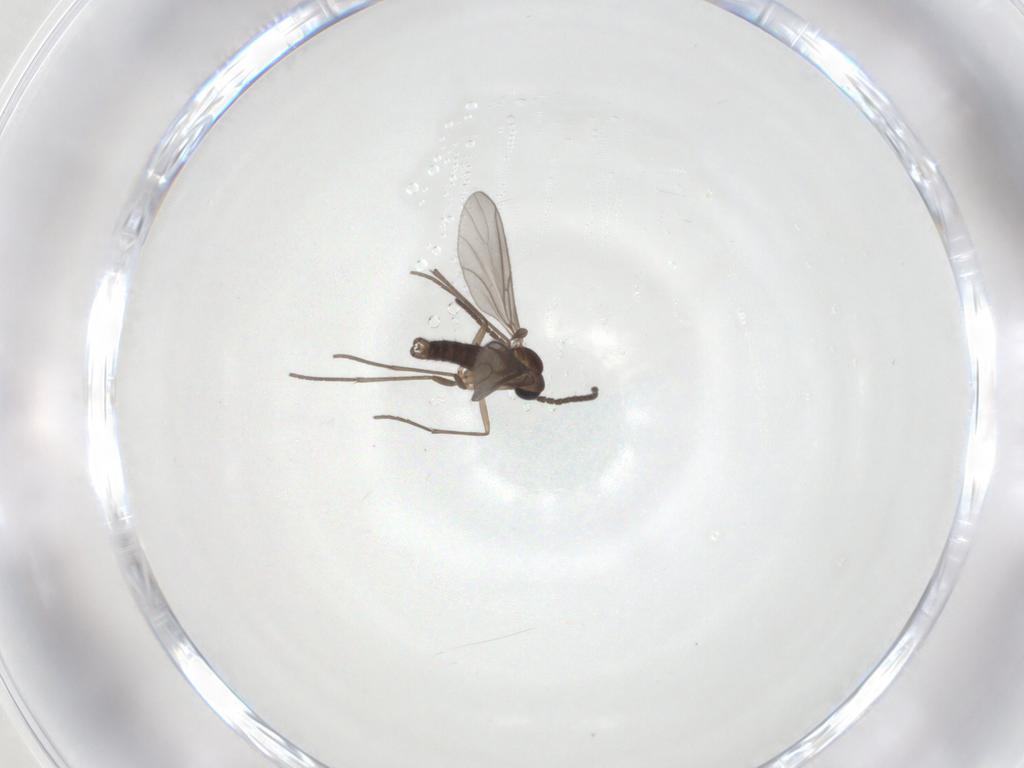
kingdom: Animalia
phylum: Arthropoda
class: Insecta
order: Diptera
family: Sciaridae
